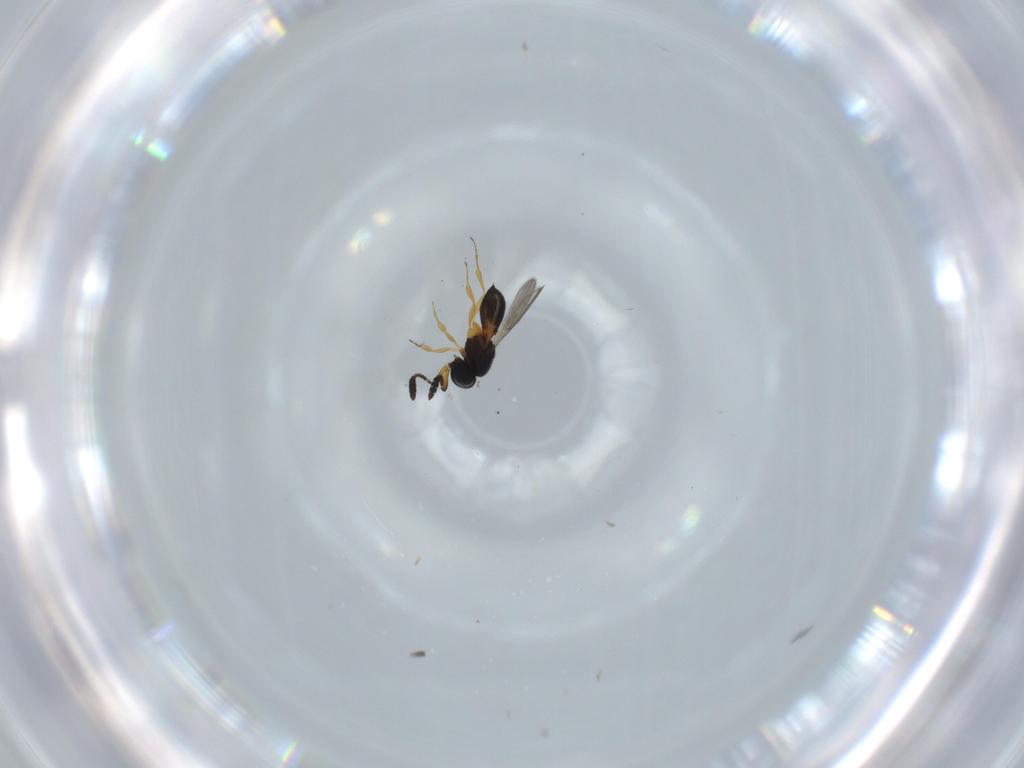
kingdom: Animalia
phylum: Arthropoda
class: Insecta
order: Hymenoptera
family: Scelionidae
